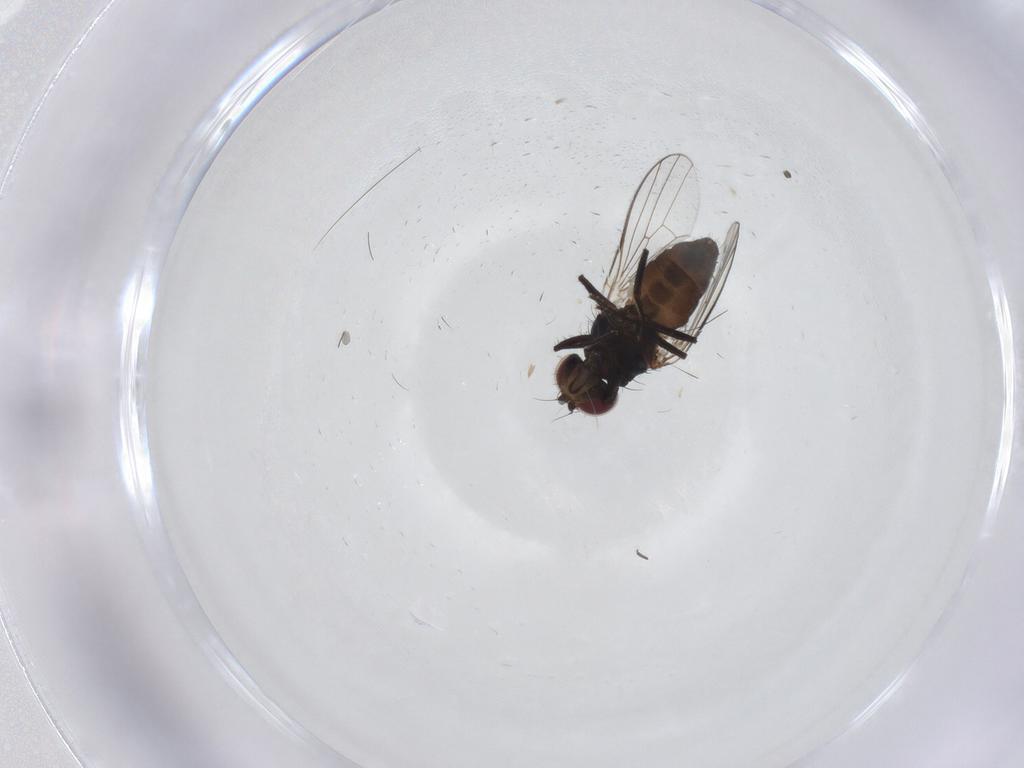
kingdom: Animalia
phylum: Arthropoda
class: Insecta
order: Diptera
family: Carnidae
